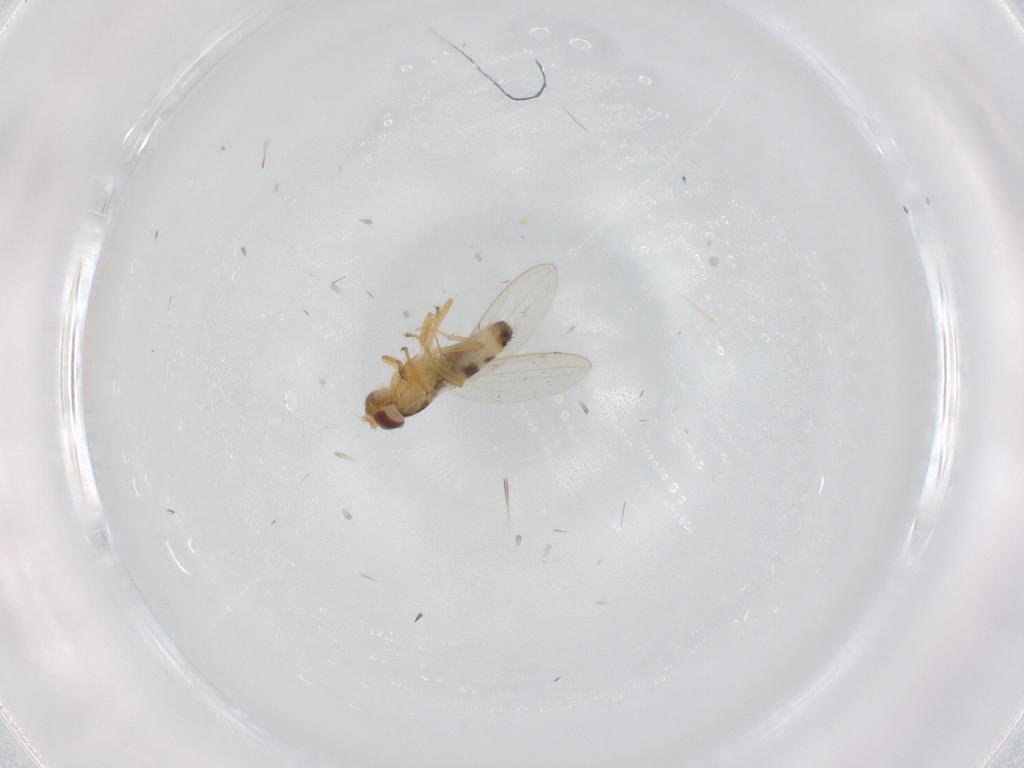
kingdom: Animalia
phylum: Arthropoda
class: Insecta
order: Diptera
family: Periscelididae
